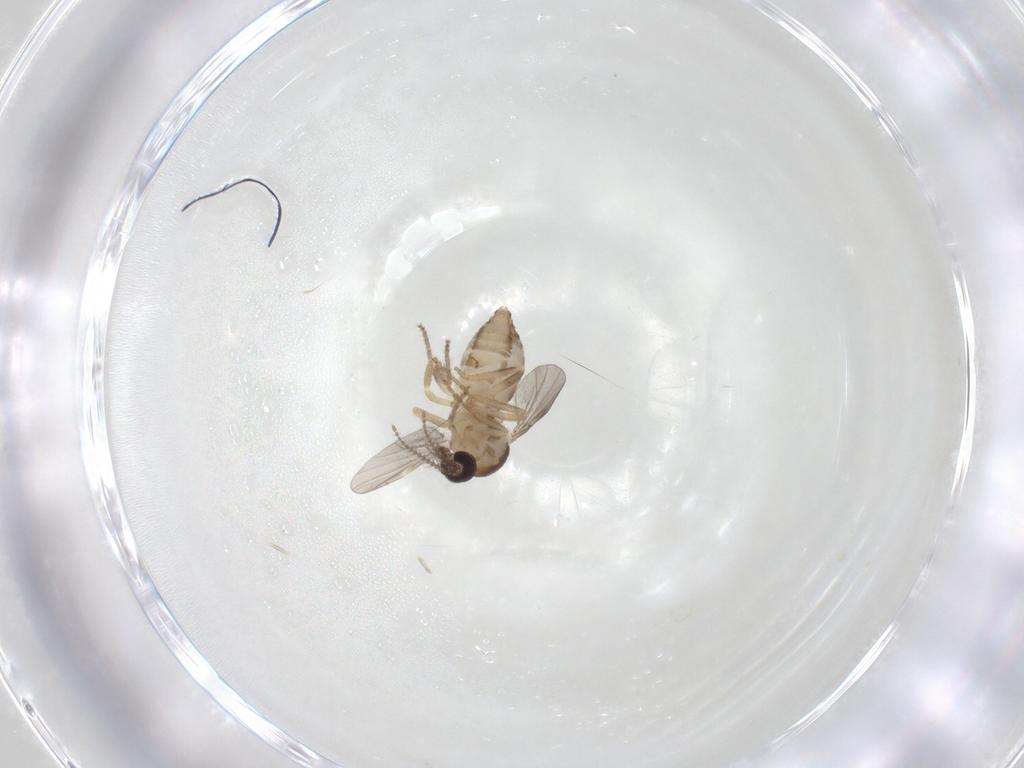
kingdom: Animalia
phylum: Arthropoda
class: Insecta
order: Diptera
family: Ceratopogonidae
